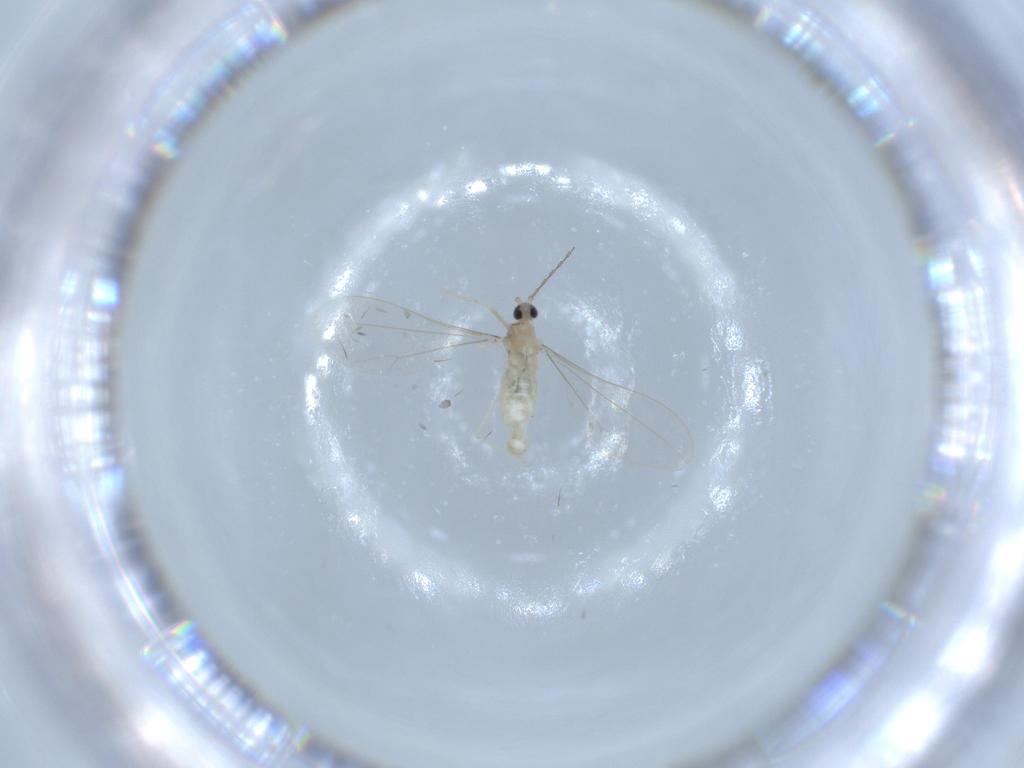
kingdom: Animalia
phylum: Arthropoda
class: Insecta
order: Diptera
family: Cecidomyiidae
